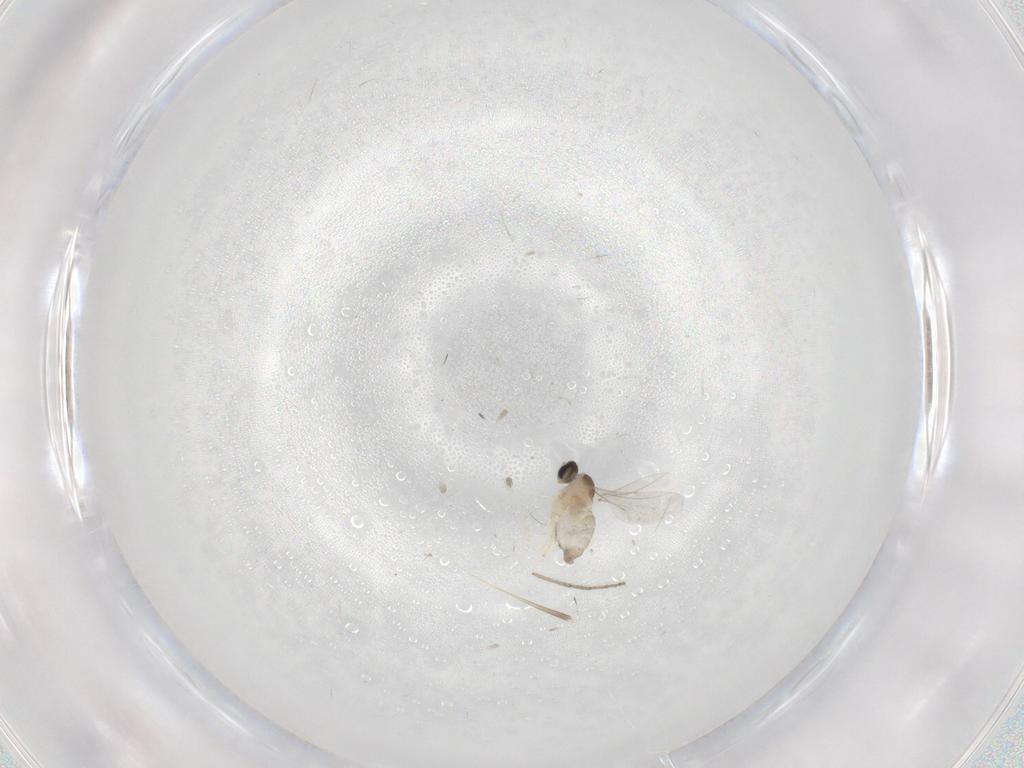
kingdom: Animalia
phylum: Arthropoda
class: Insecta
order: Diptera
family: Cecidomyiidae
